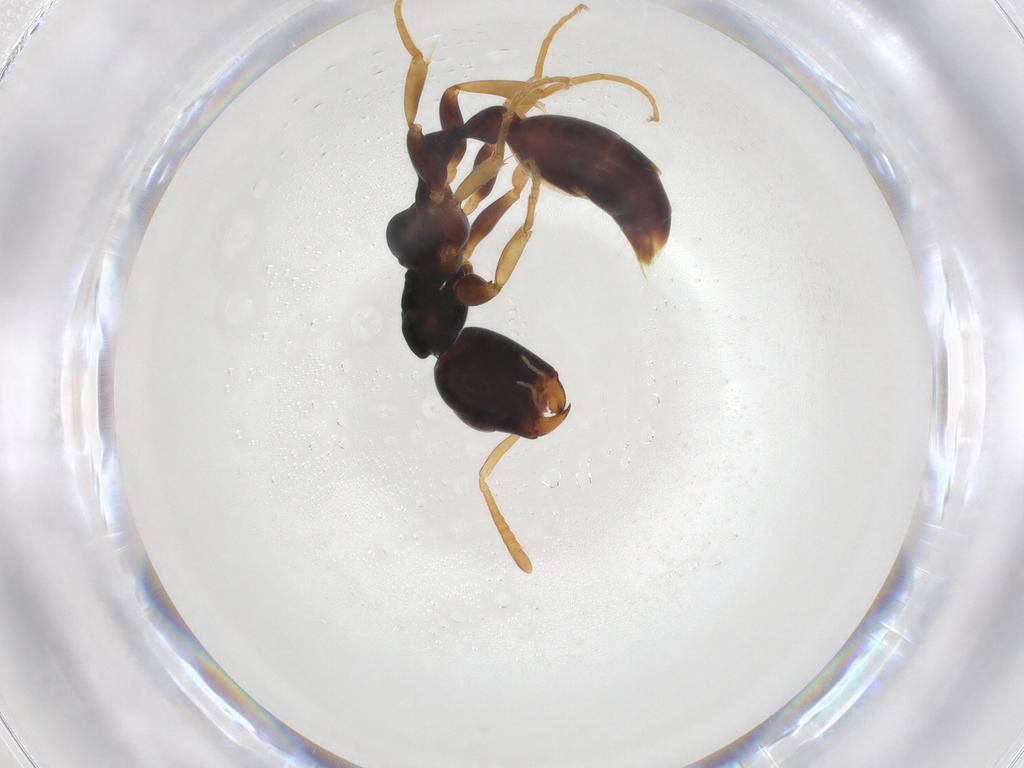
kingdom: Animalia
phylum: Arthropoda
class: Insecta
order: Hymenoptera
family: Formicidae
